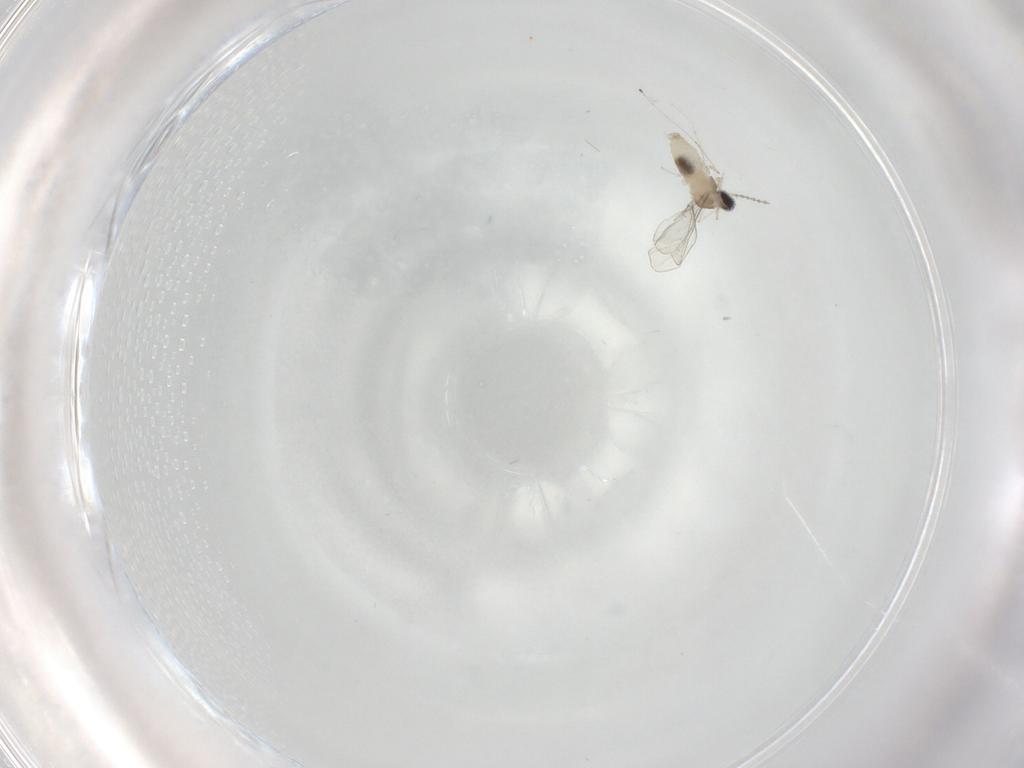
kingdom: Animalia
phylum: Arthropoda
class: Insecta
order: Diptera
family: Cecidomyiidae
